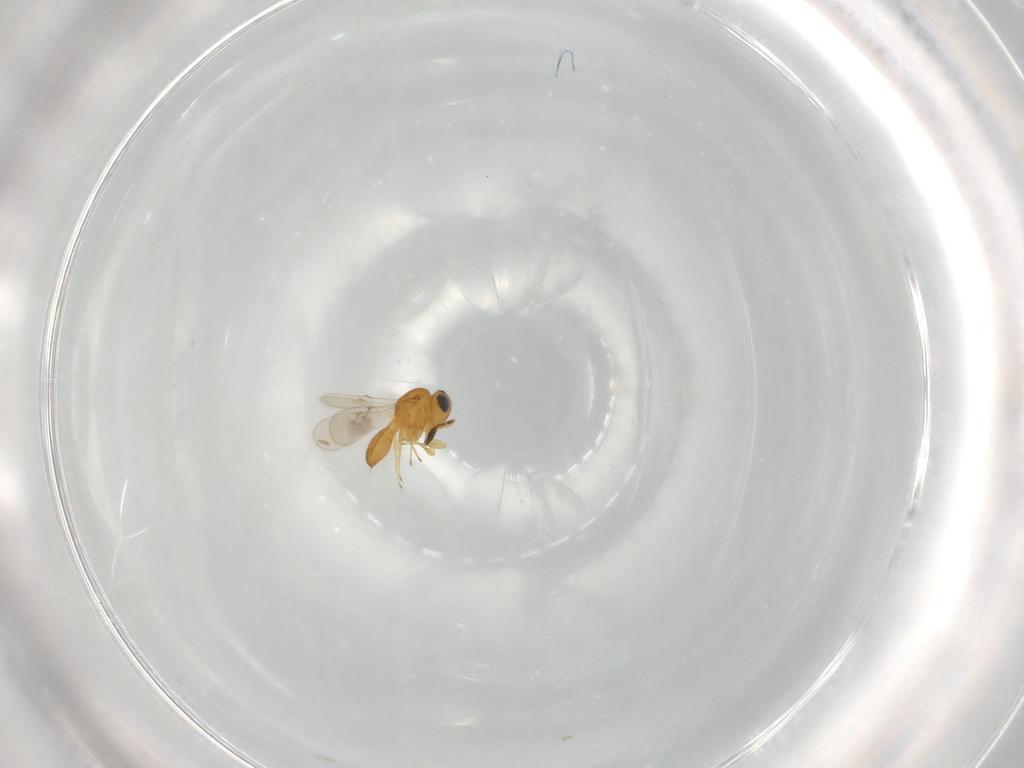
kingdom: Animalia
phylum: Arthropoda
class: Insecta
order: Hymenoptera
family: Scelionidae
